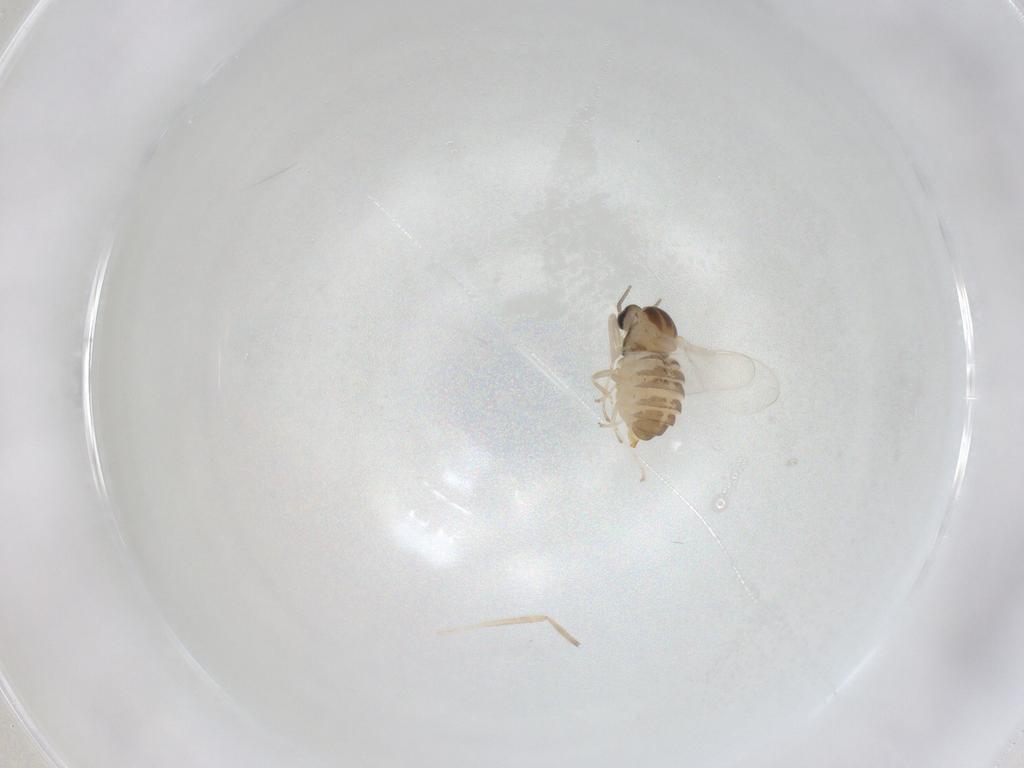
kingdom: Animalia
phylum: Arthropoda
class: Insecta
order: Diptera
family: Cecidomyiidae
